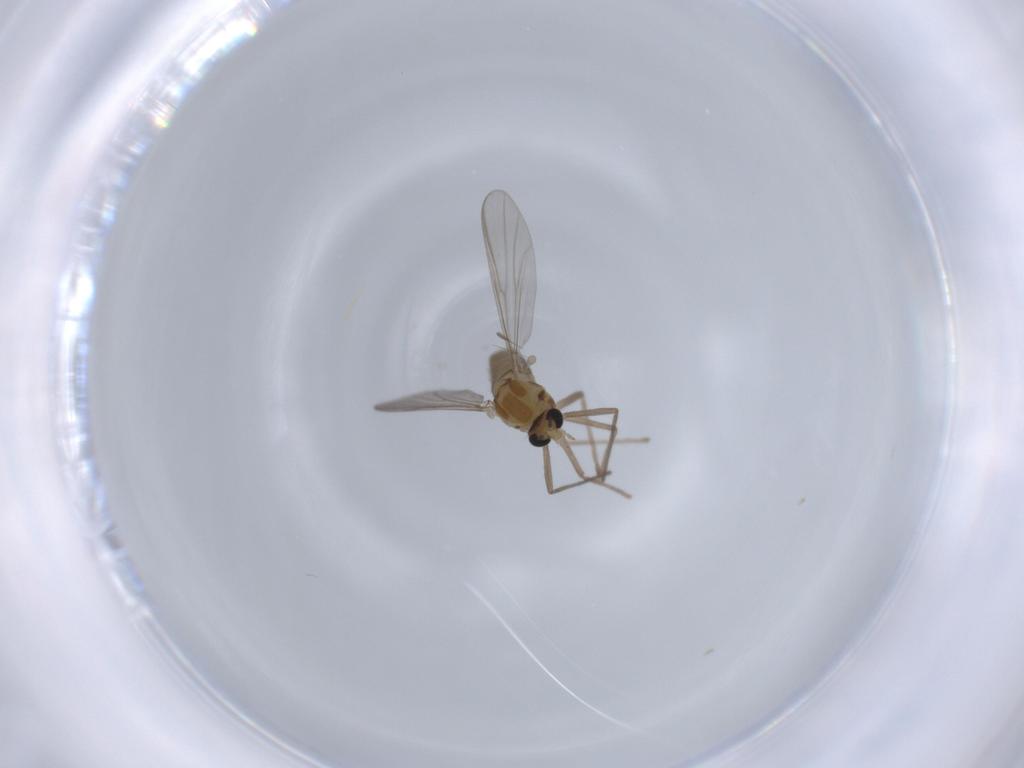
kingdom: Animalia
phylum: Arthropoda
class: Insecta
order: Diptera
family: Chironomidae
